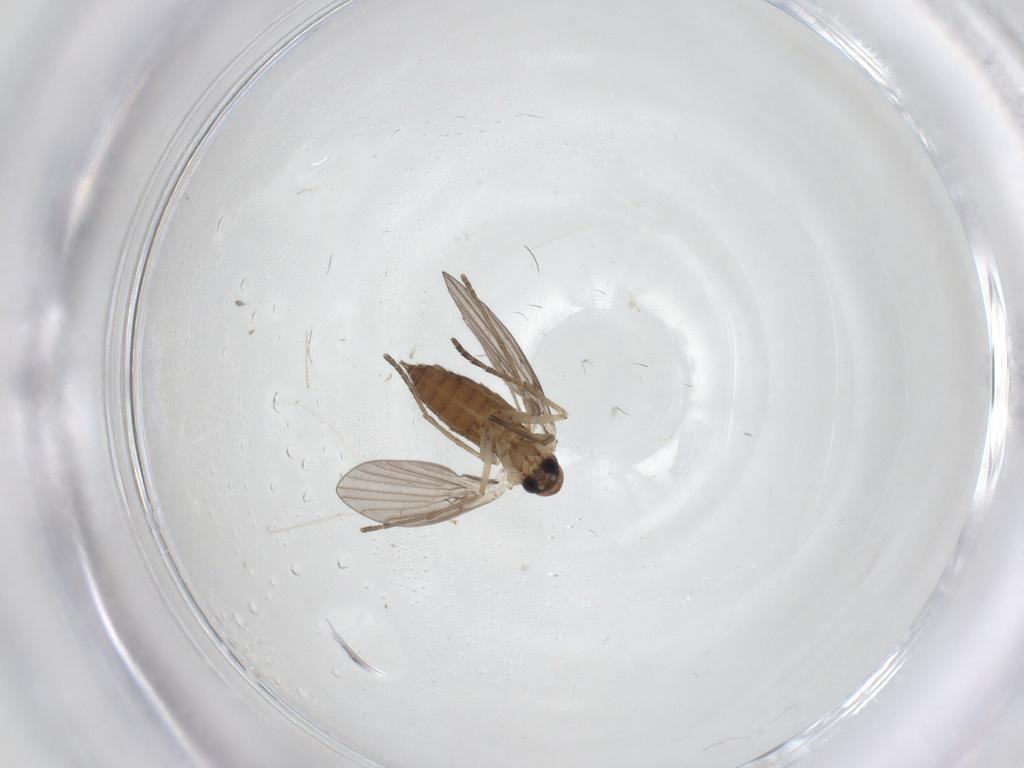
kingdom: Animalia
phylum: Arthropoda
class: Insecta
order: Diptera
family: Cecidomyiidae
